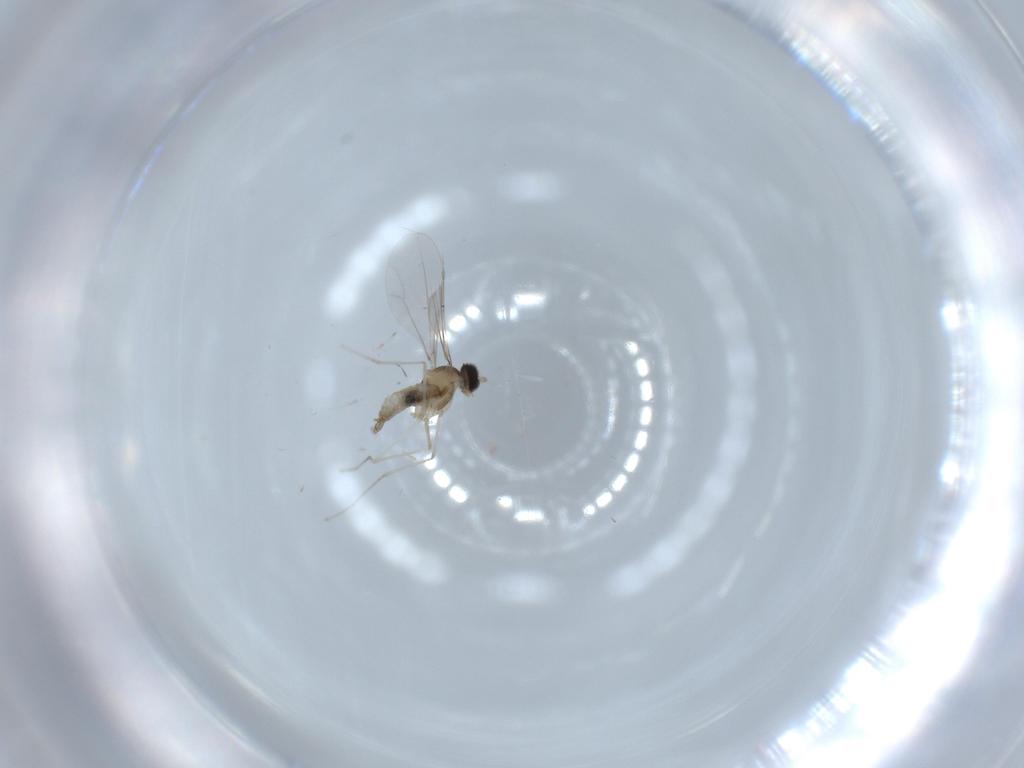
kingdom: Animalia
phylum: Arthropoda
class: Insecta
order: Diptera
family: Cecidomyiidae
